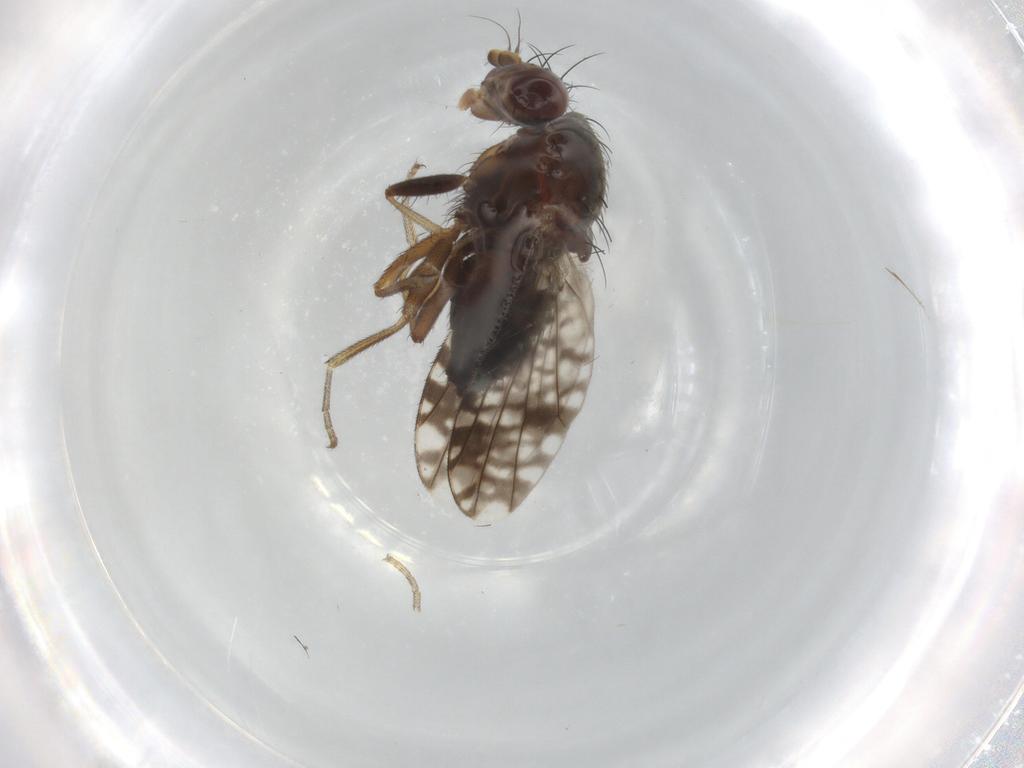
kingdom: Animalia
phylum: Arthropoda
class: Insecta
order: Diptera
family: Tephritidae
